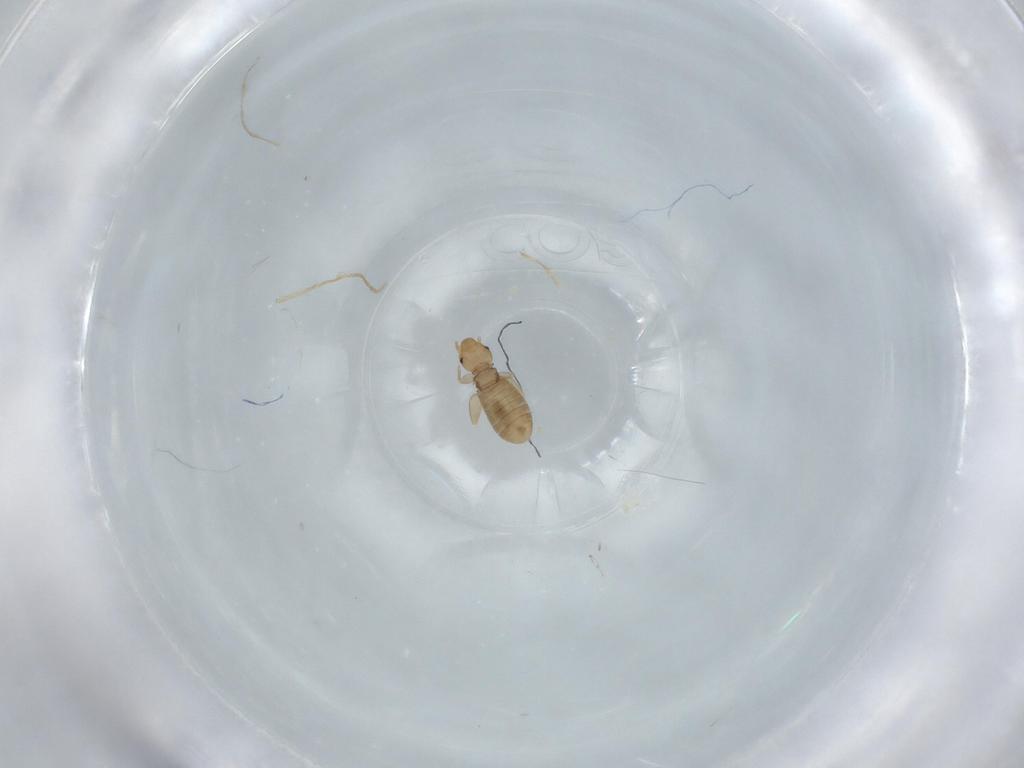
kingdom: Animalia
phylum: Arthropoda
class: Insecta
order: Psocodea
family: Liposcelididae
